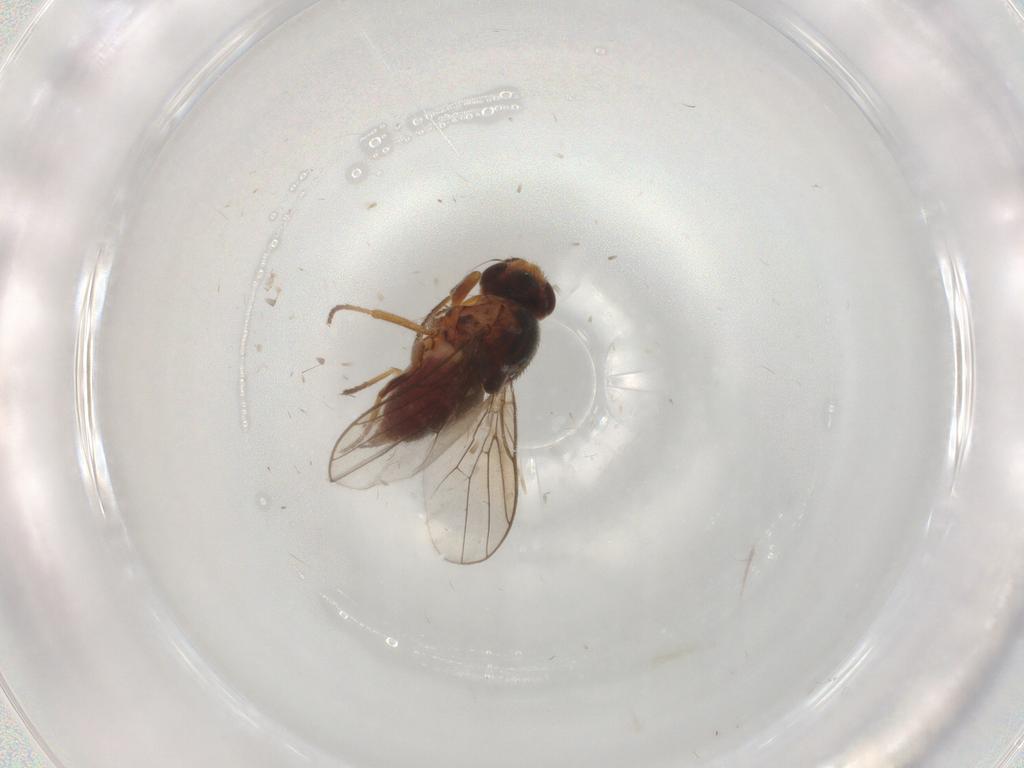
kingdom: Animalia
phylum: Arthropoda
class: Insecta
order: Diptera
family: Chloropidae
